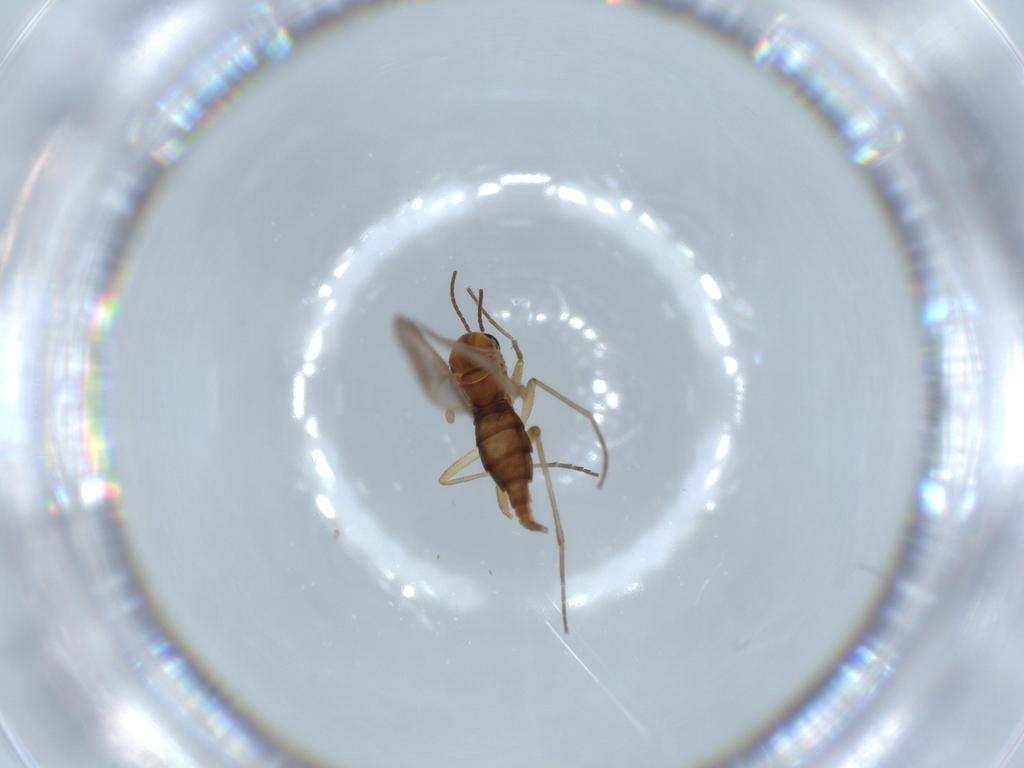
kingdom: Animalia
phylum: Arthropoda
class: Insecta
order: Diptera
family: Sciaridae
